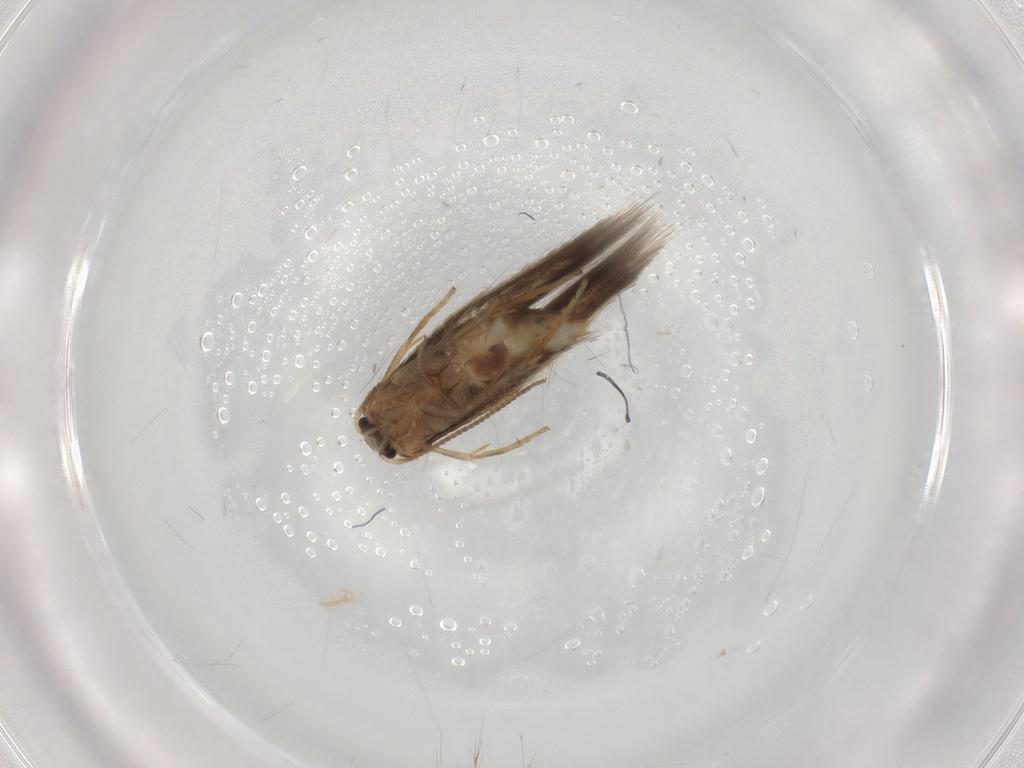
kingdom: Animalia
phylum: Arthropoda
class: Insecta
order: Lepidoptera
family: Nepticulidae
